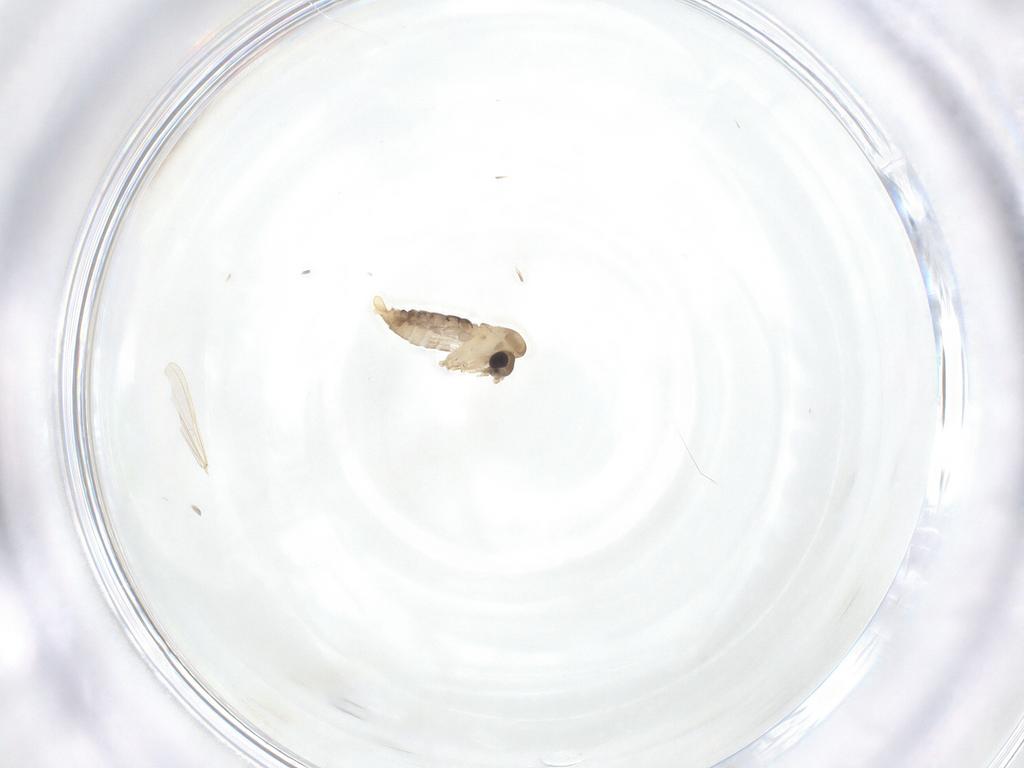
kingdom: Animalia
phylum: Arthropoda
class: Insecta
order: Diptera
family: Psychodidae
